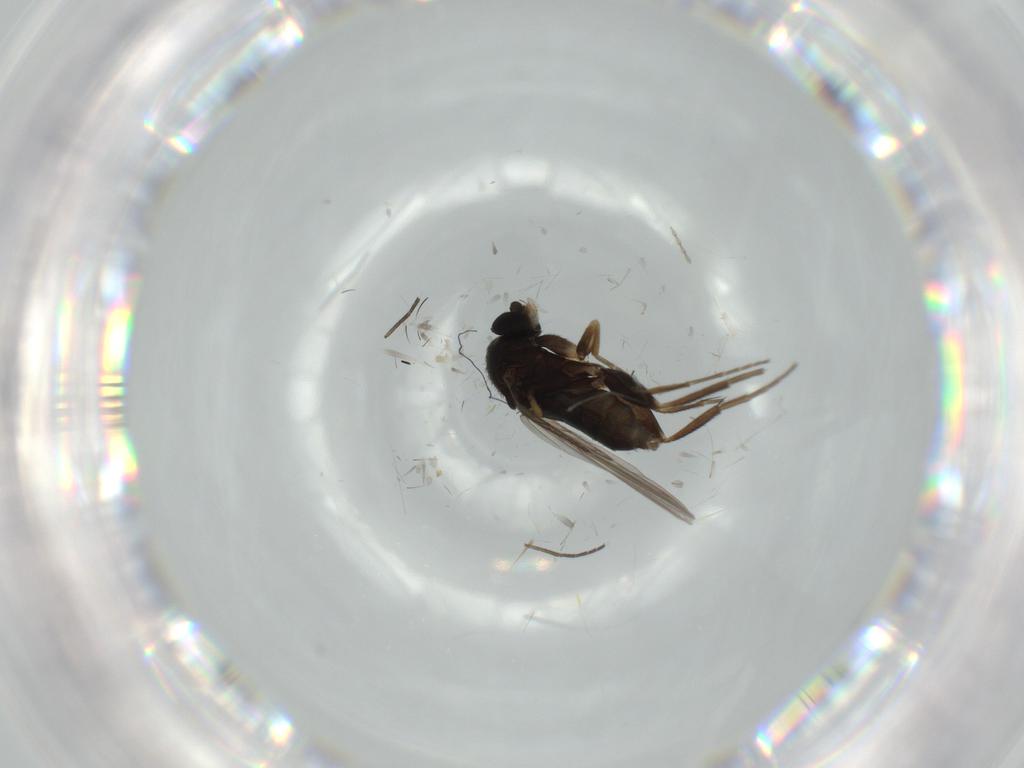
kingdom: Animalia
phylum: Arthropoda
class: Insecta
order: Diptera
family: Phoridae
